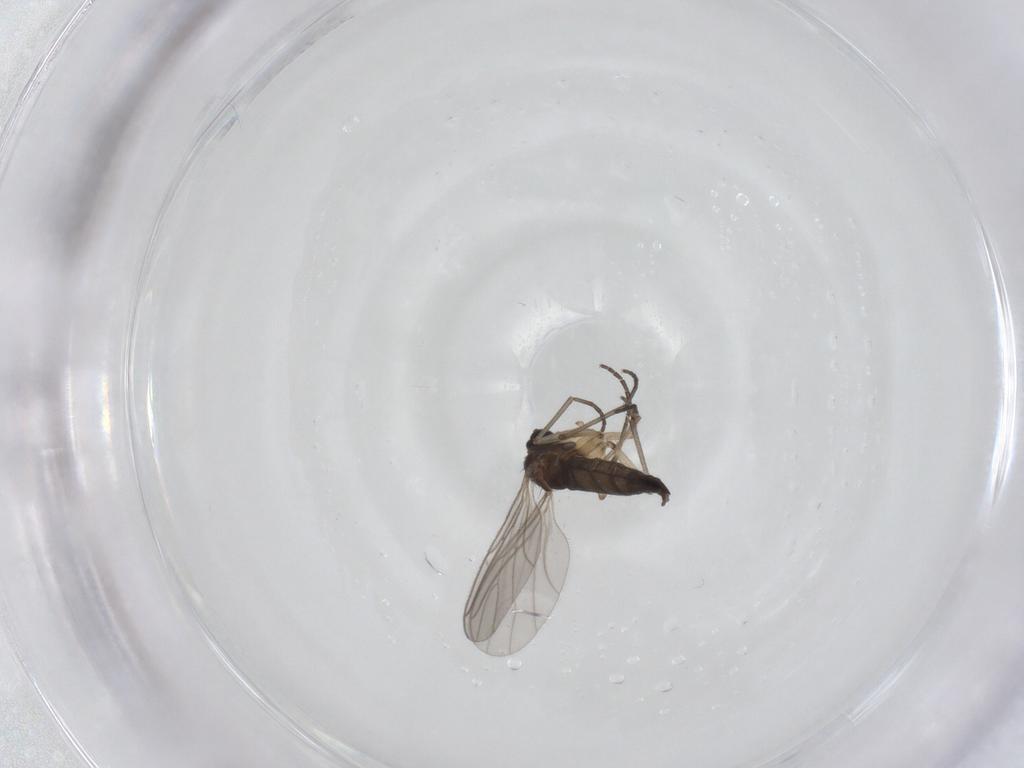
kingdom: Animalia
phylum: Arthropoda
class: Insecta
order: Diptera
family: Sciaridae
